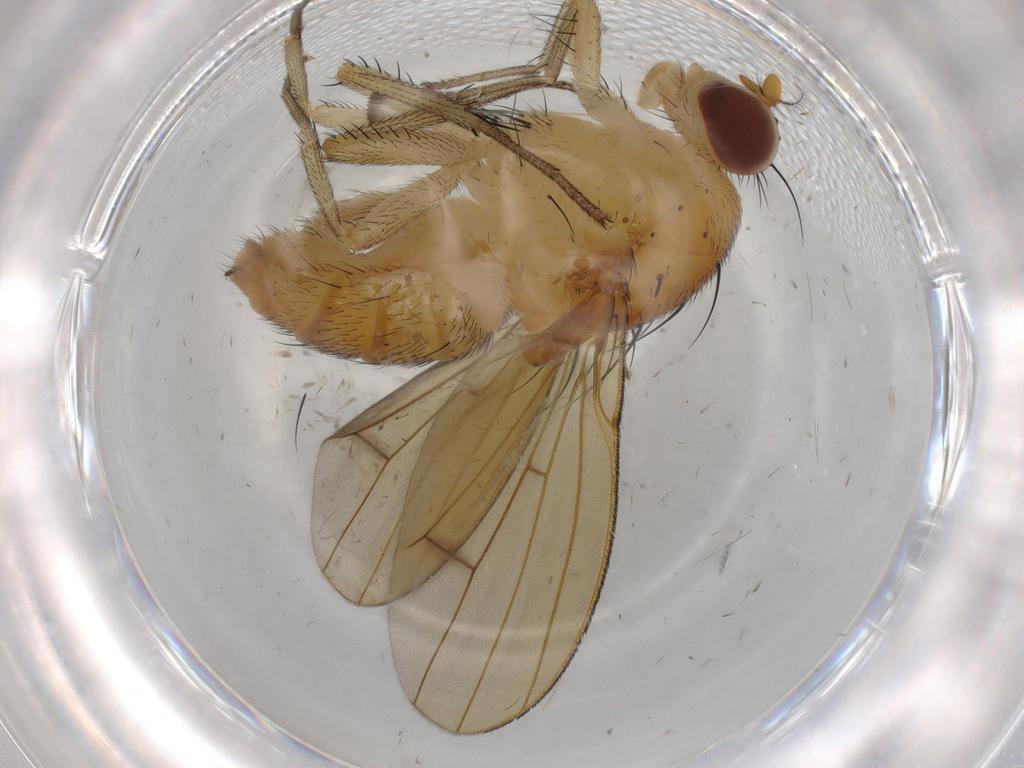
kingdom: Animalia
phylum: Arthropoda
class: Insecta
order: Diptera
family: Lauxaniidae
